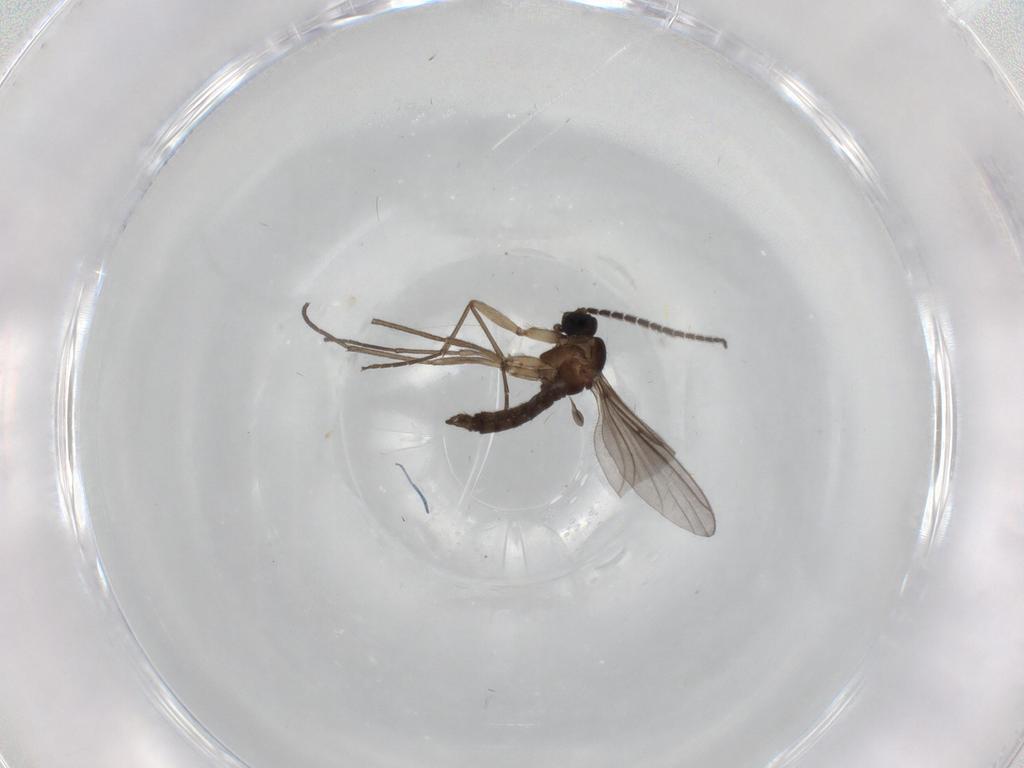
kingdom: Animalia
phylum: Arthropoda
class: Insecta
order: Diptera
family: Sciaridae
